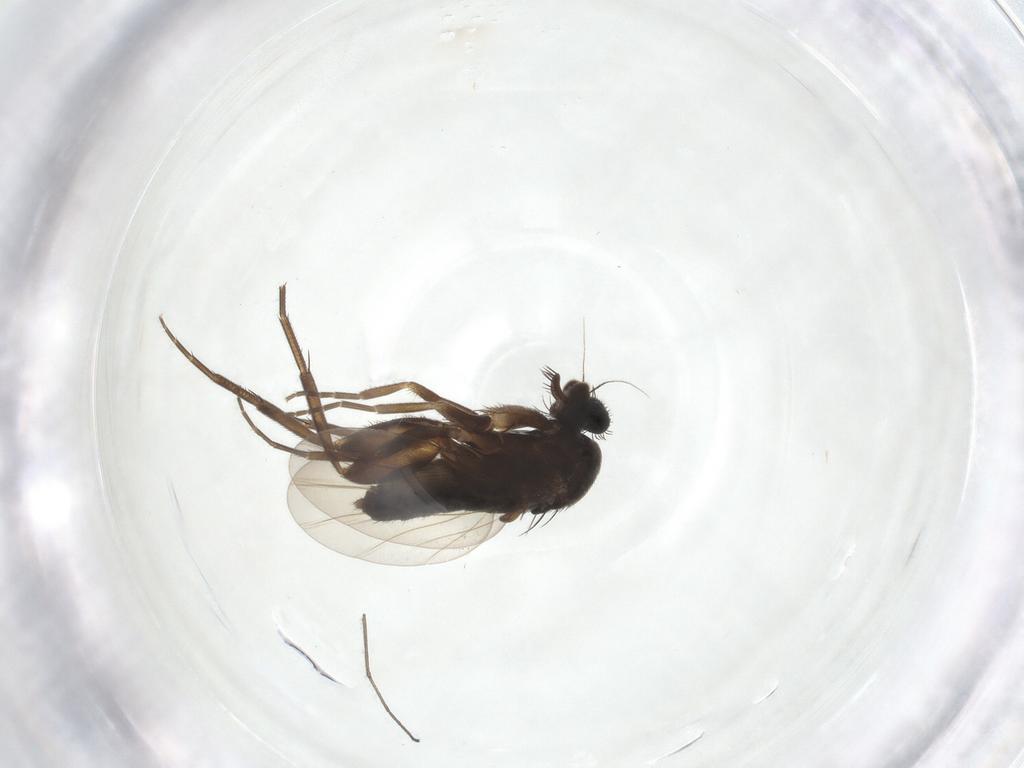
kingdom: Animalia
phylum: Arthropoda
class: Insecta
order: Diptera
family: Phoridae
